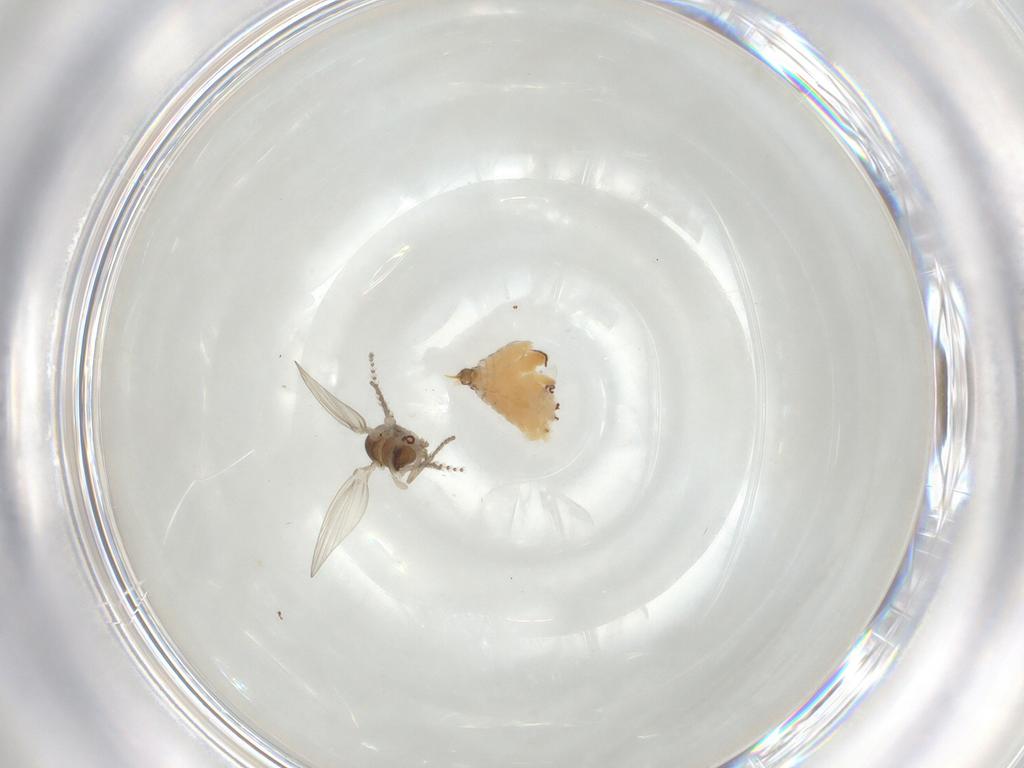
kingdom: Animalia
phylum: Arthropoda
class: Insecta
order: Diptera
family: Psychodidae
